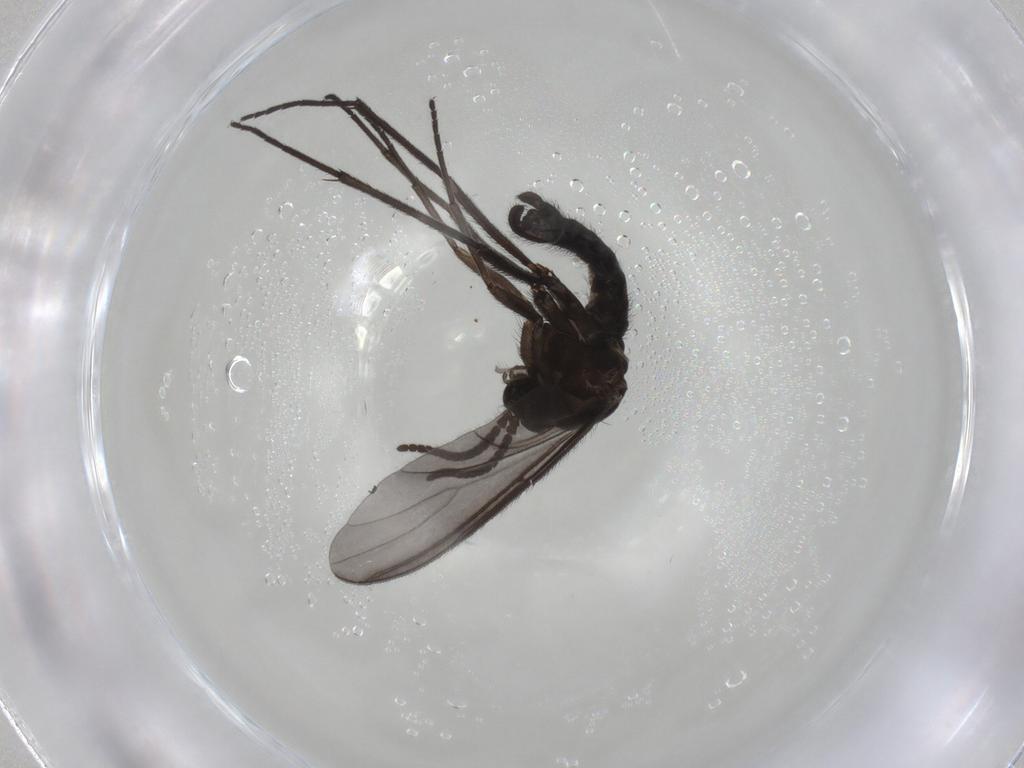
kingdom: Animalia
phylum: Arthropoda
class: Insecta
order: Diptera
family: Sciaridae
